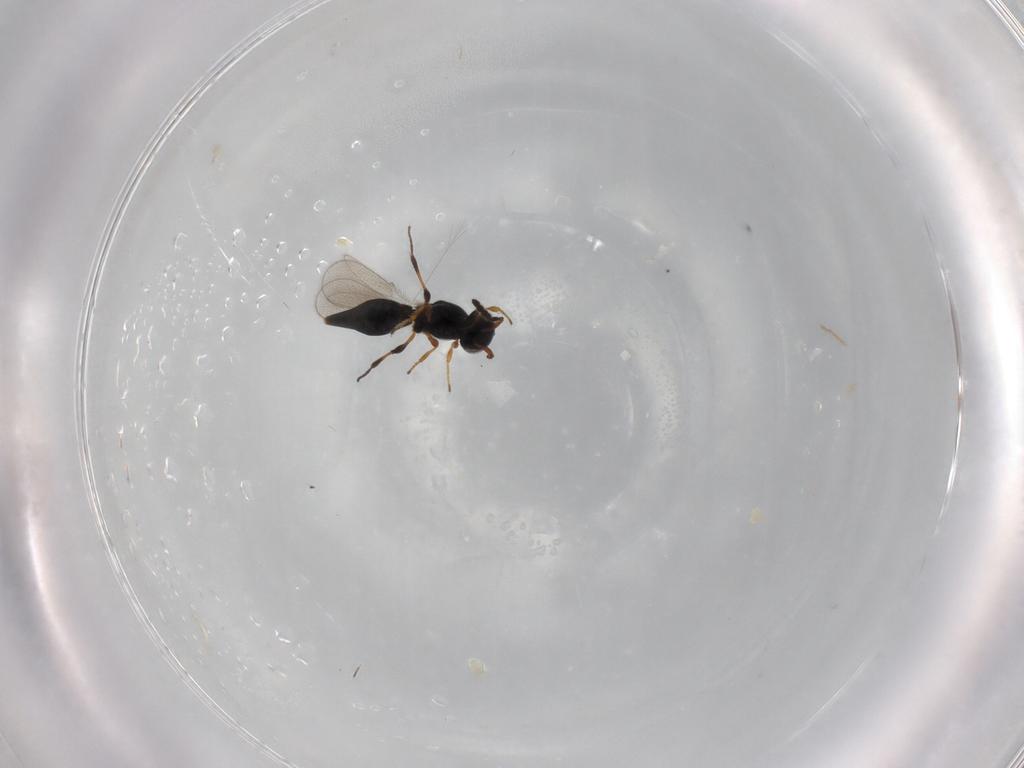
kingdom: Animalia
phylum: Arthropoda
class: Insecta
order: Hymenoptera
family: Platygastridae
